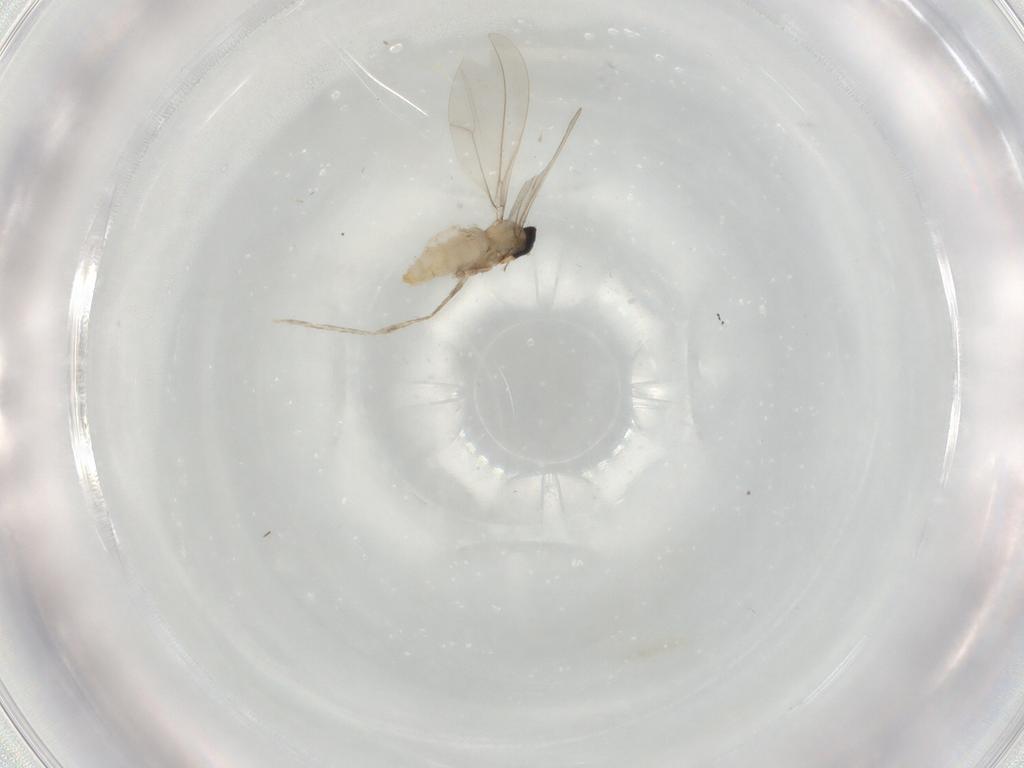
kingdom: Animalia
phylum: Arthropoda
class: Insecta
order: Diptera
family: Cecidomyiidae
